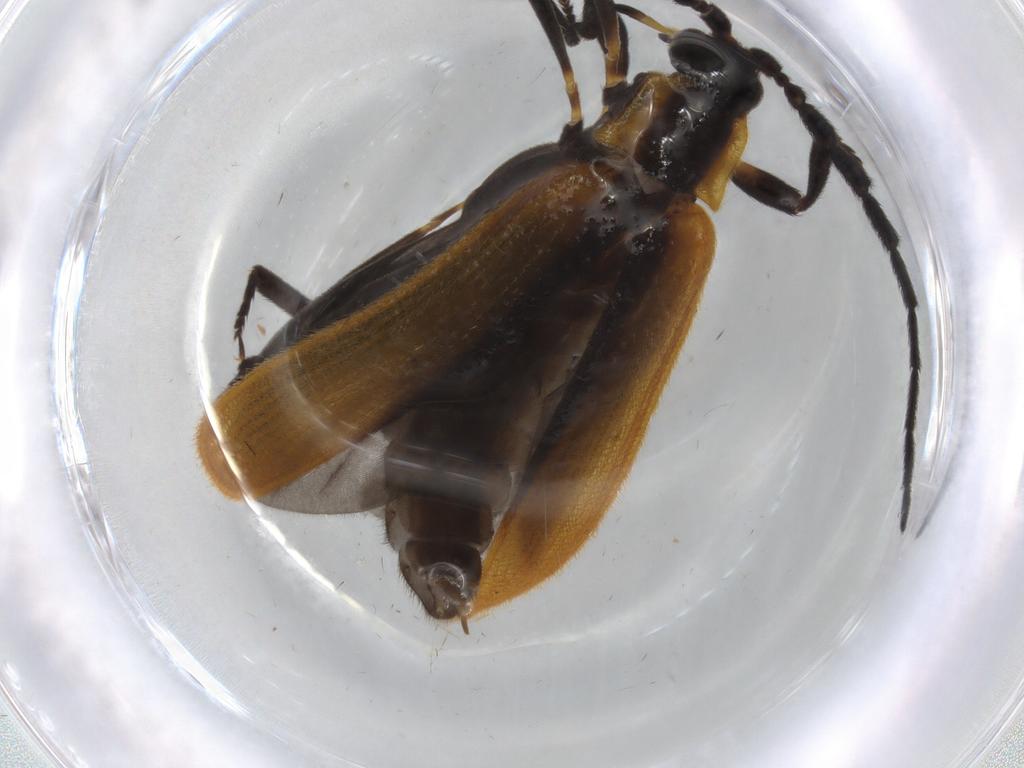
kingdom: Animalia
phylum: Arthropoda
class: Insecta
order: Coleoptera
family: Lycidae
